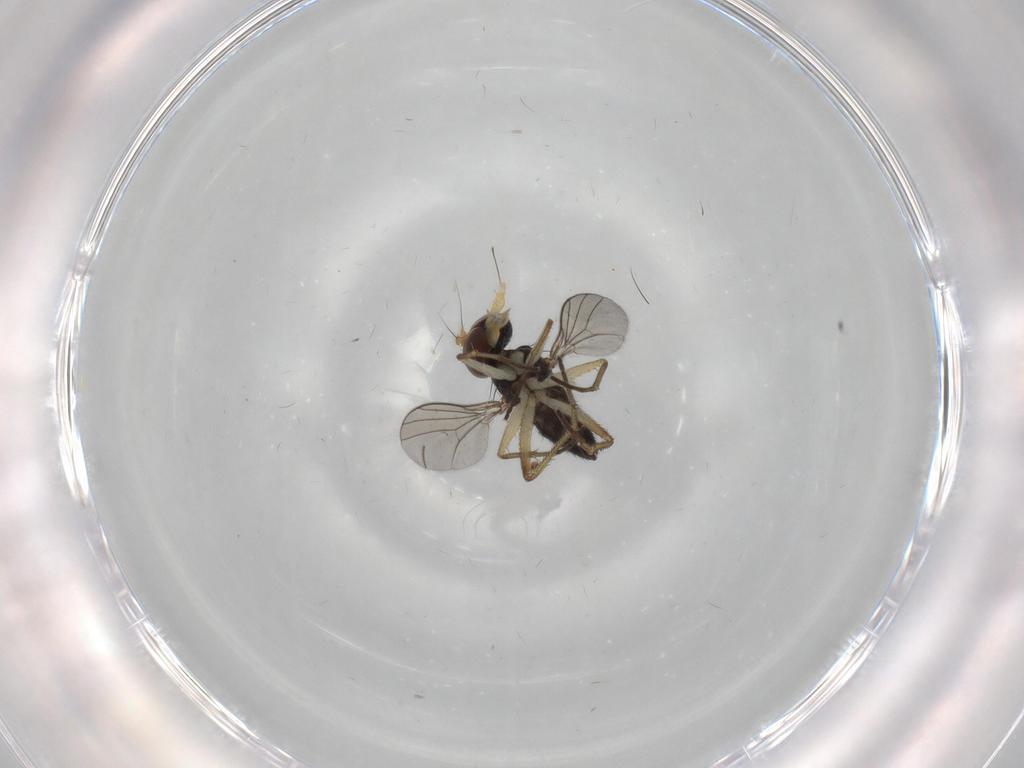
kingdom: Animalia
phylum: Arthropoda
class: Insecta
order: Diptera
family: Dolichopodidae
